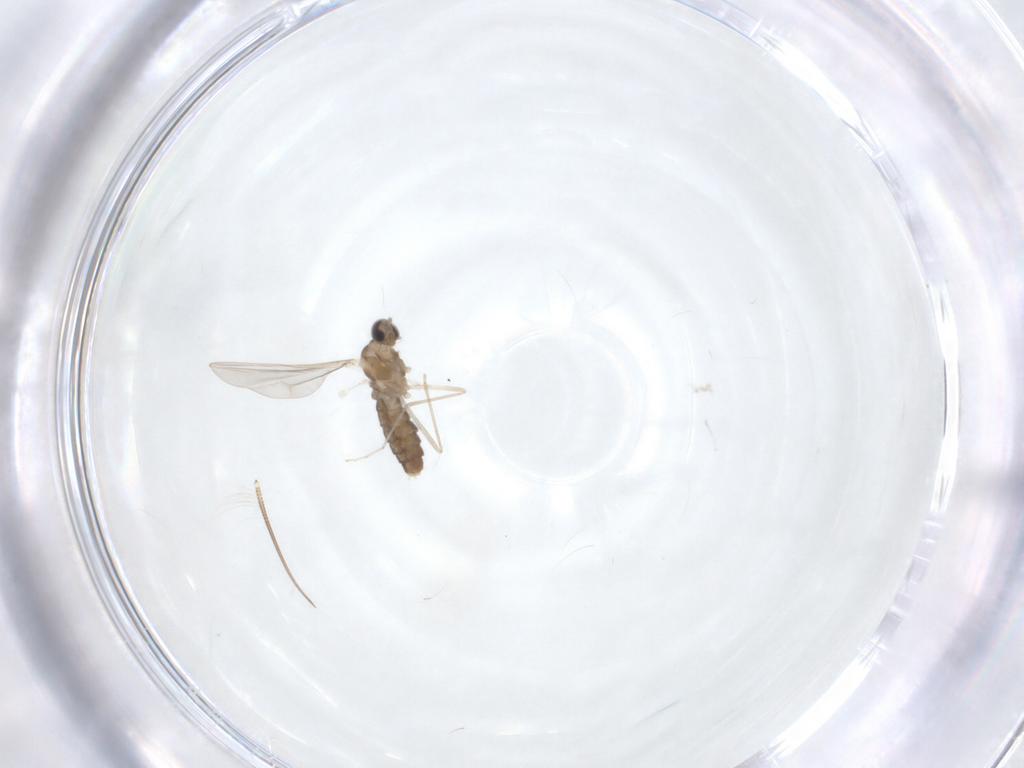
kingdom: Animalia
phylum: Arthropoda
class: Insecta
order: Diptera
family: Cecidomyiidae
